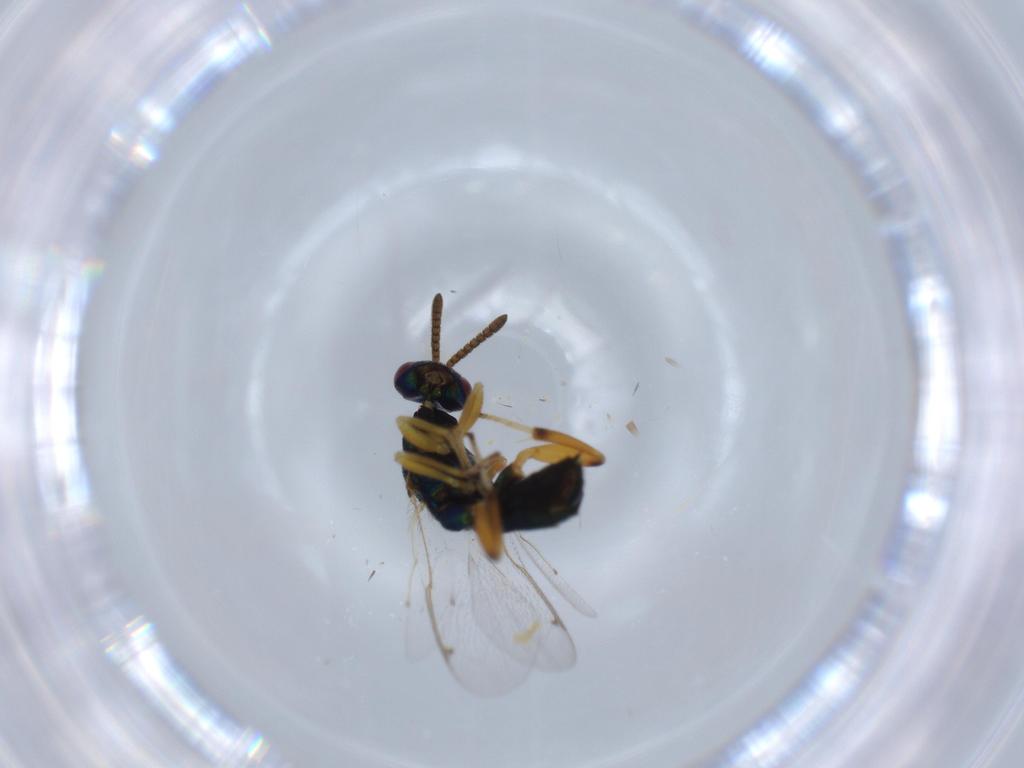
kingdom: Animalia
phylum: Arthropoda
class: Insecta
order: Hymenoptera
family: Torymidae
